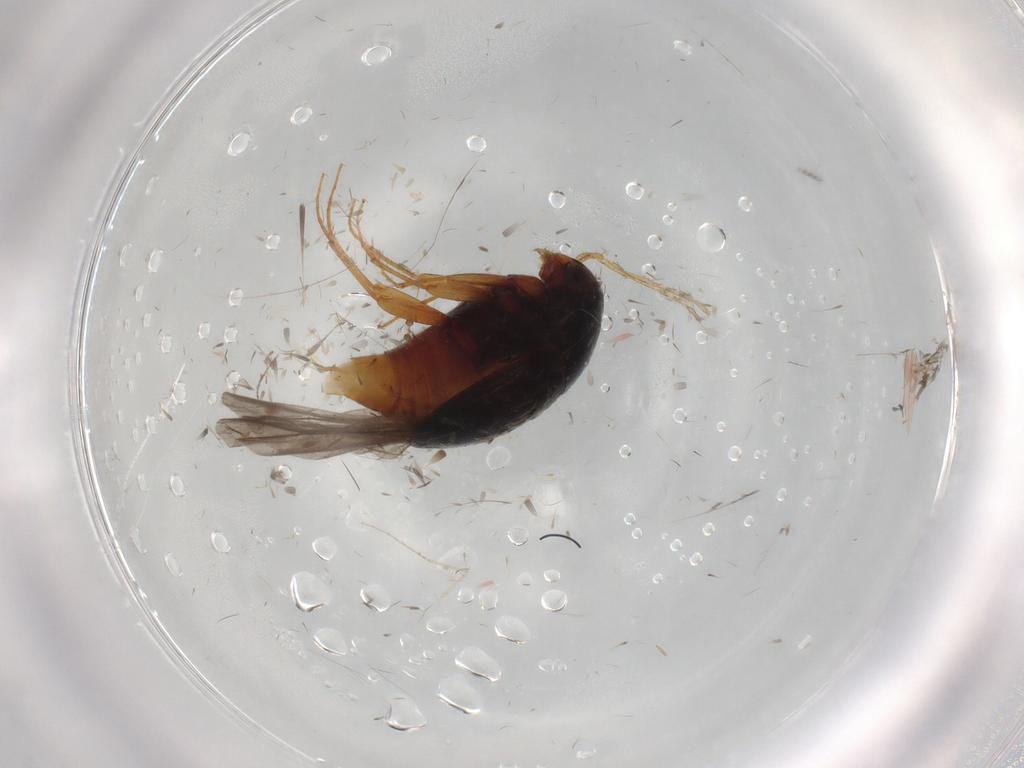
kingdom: Animalia
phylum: Arthropoda
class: Insecta
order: Coleoptera
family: Staphylinidae
